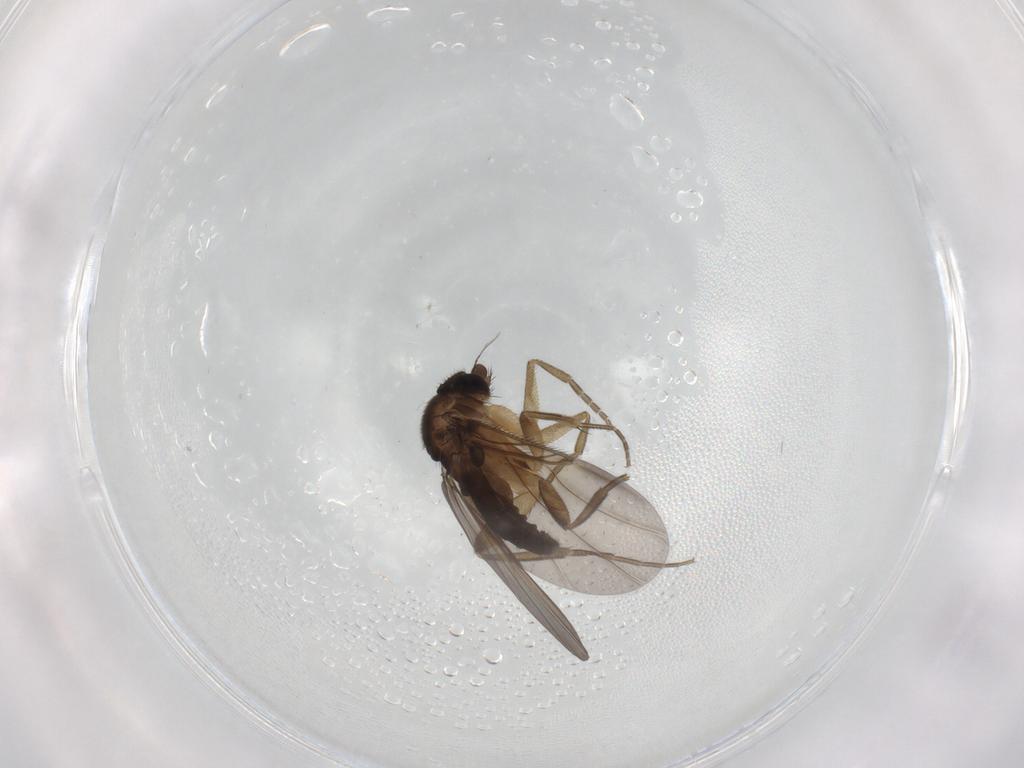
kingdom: Animalia
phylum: Arthropoda
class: Insecta
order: Diptera
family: Phoridae
